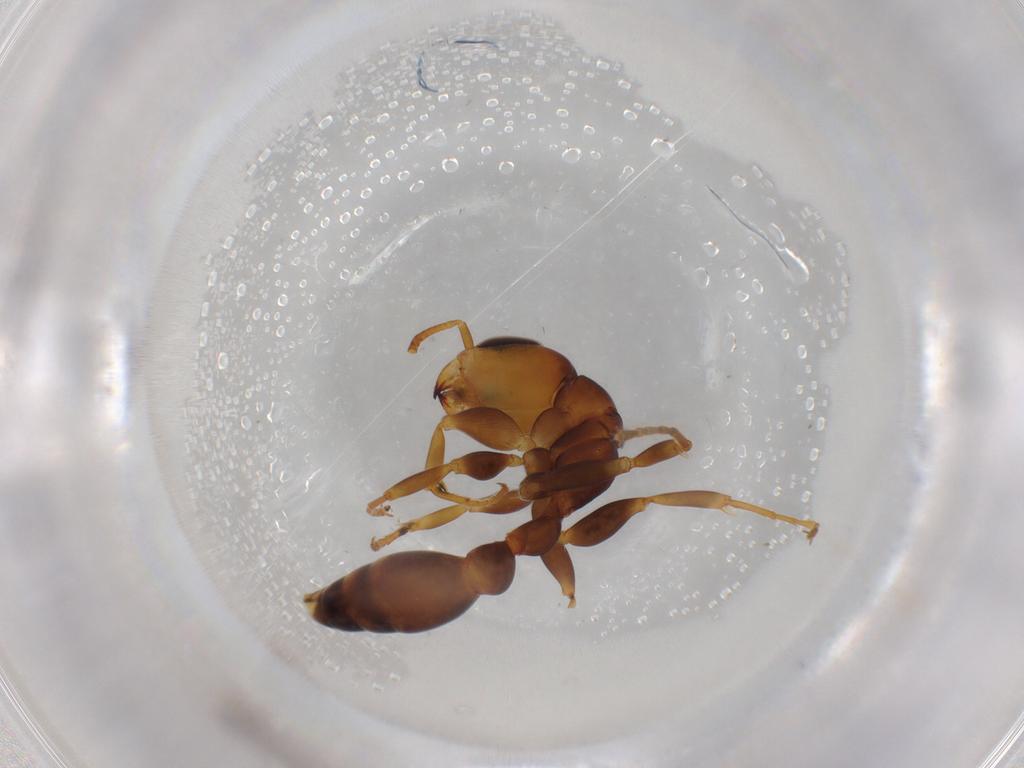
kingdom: Animalia
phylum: Arthropoda
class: Insecta
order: Hymenoptera
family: Formicidae
